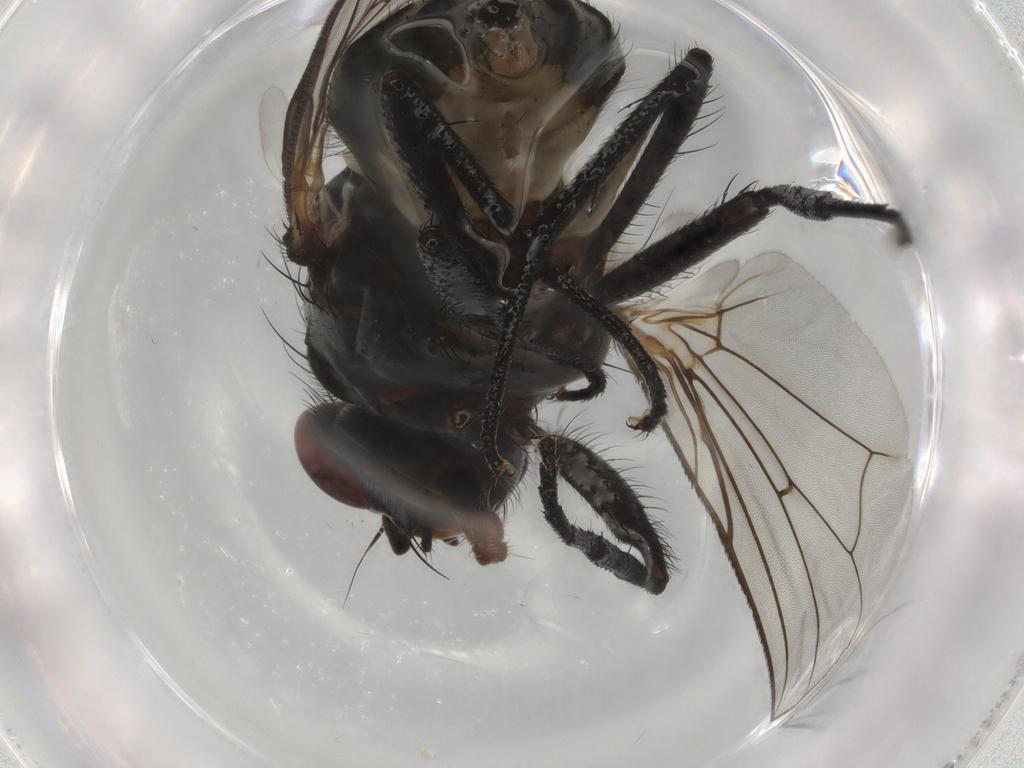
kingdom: Animalia
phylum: Arthropoda
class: Insecta
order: Diptera
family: Anthomyiidae
